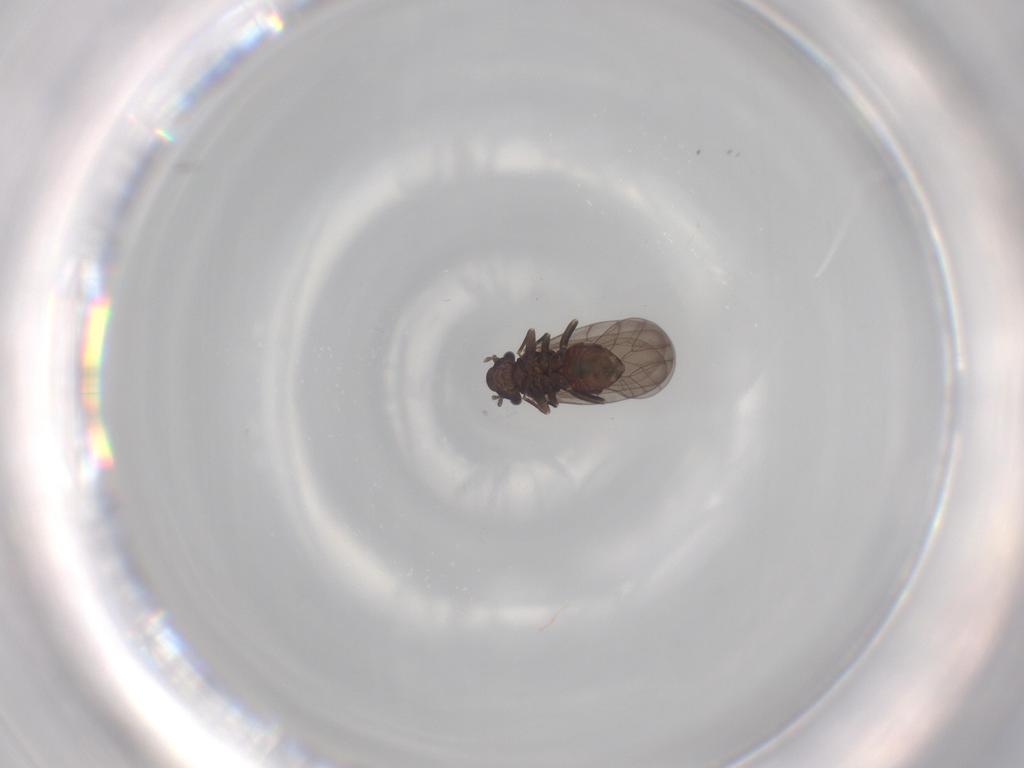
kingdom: Animalia
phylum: Arthropoda
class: Insecta
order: Psocodea
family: Lepidopsocidae
